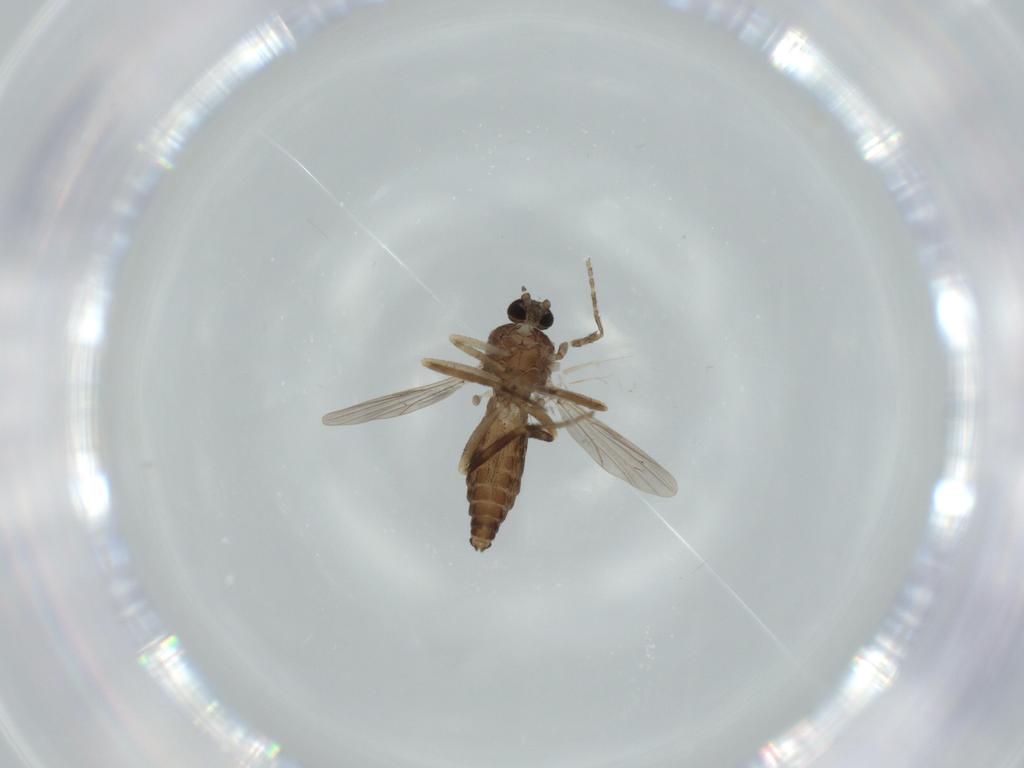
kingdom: Animalia
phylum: Arthropoda
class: Insecta
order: Diptera
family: Ceratopogonidae
